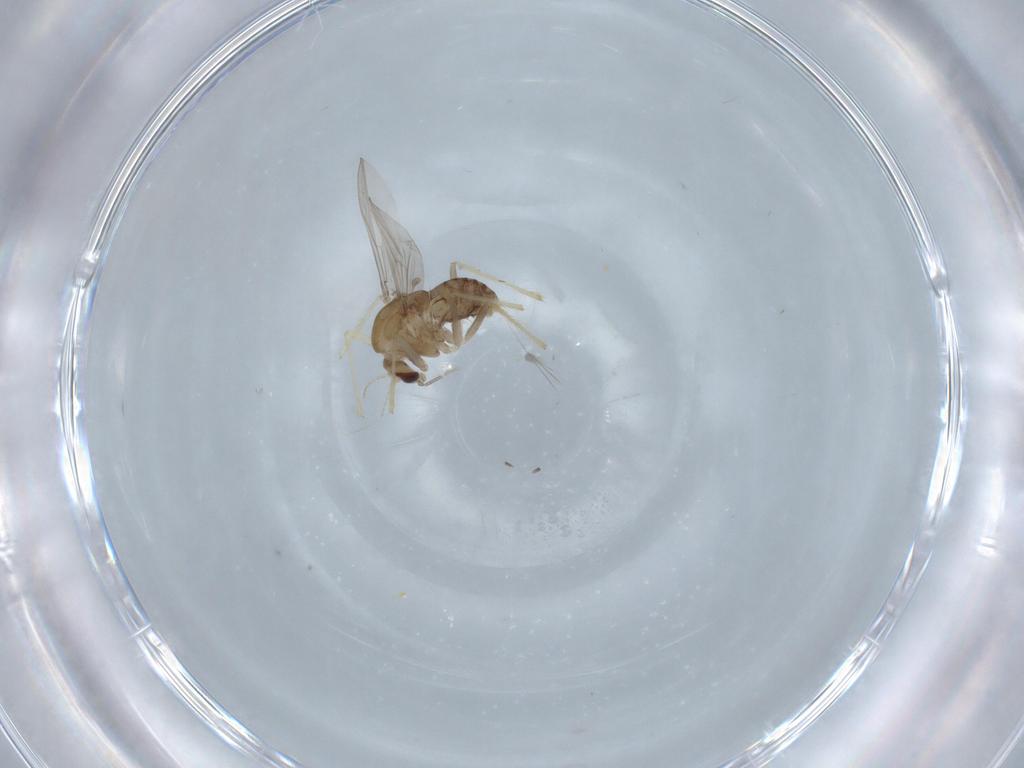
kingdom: Animalia
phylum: Arthropoda
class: Insecta
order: Diptera
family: Chironomidae
